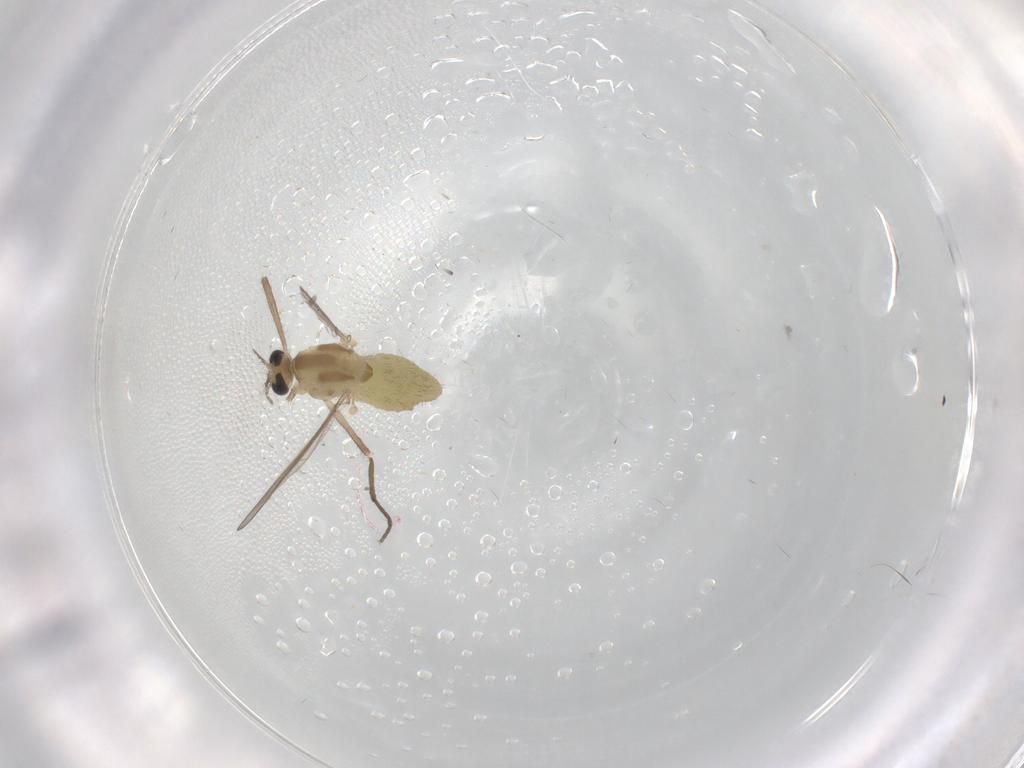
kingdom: Animalia
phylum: Arthropoda
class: Insecta
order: Diptera
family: Chironomidae
